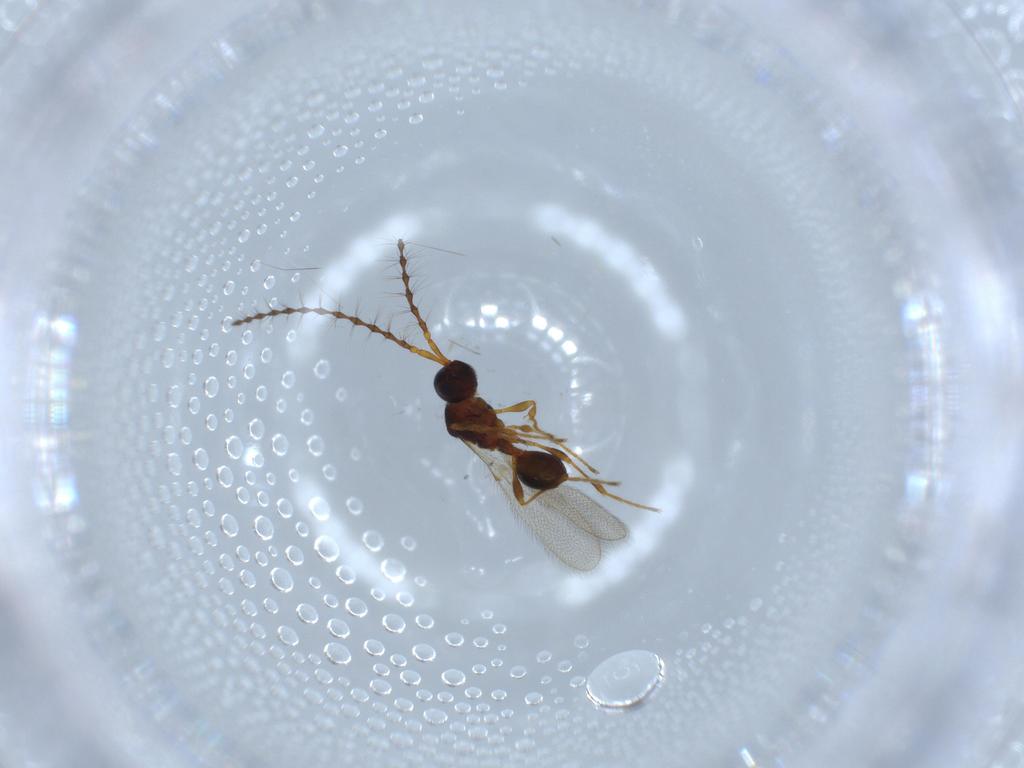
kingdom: Animalia
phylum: Arthropoda
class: Insecta
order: Hymenoptera
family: Diapriidae
